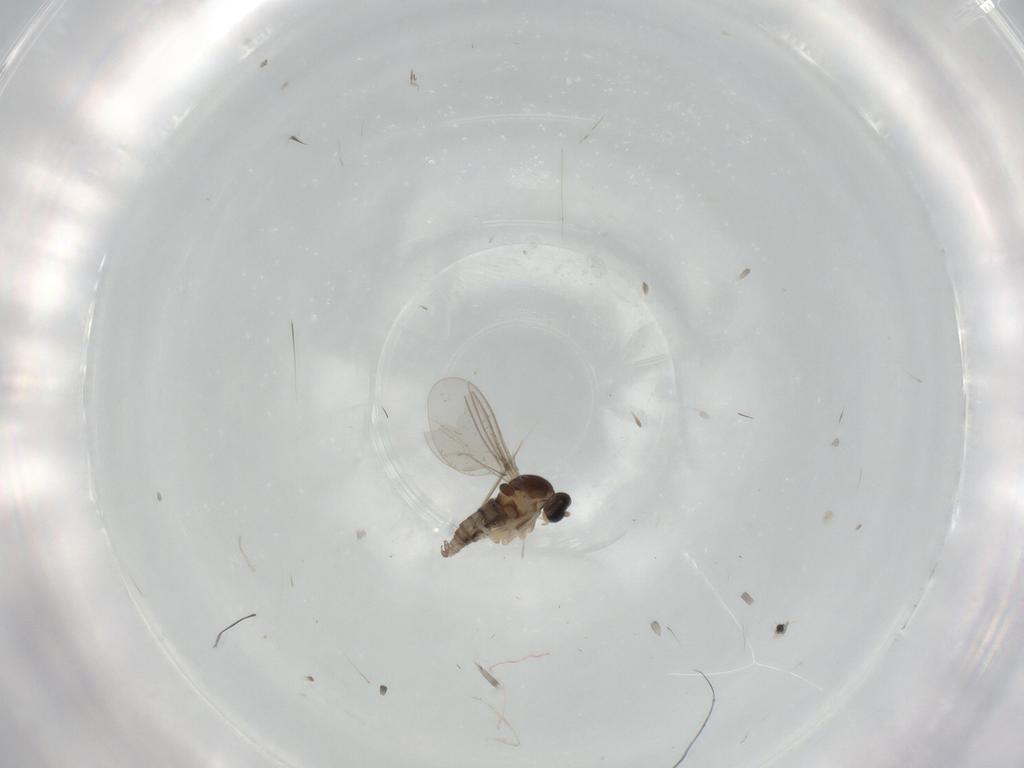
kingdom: Animalia
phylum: Arthropoda
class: Insecta
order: Diptera
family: Cecidomyiidae
